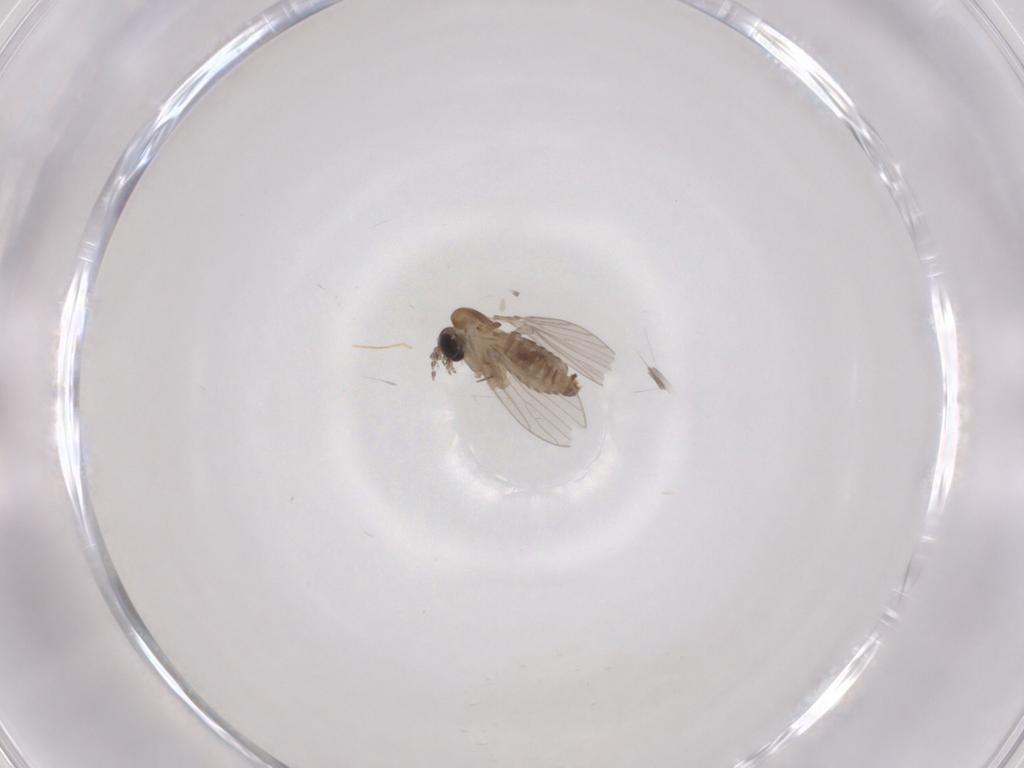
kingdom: Animalia
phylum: Arthropoda
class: Insecta
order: Diptera
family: Psychodidae
